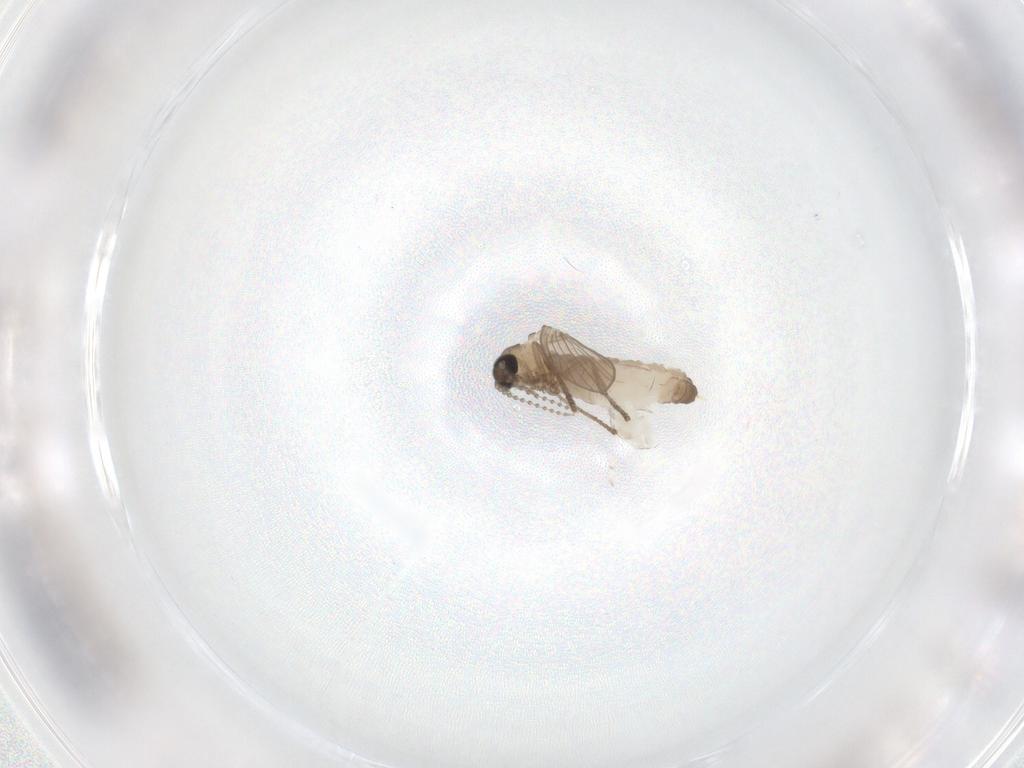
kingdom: Animalia
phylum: Arthropoda
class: Insecta
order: Diptera
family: Psychodidae
